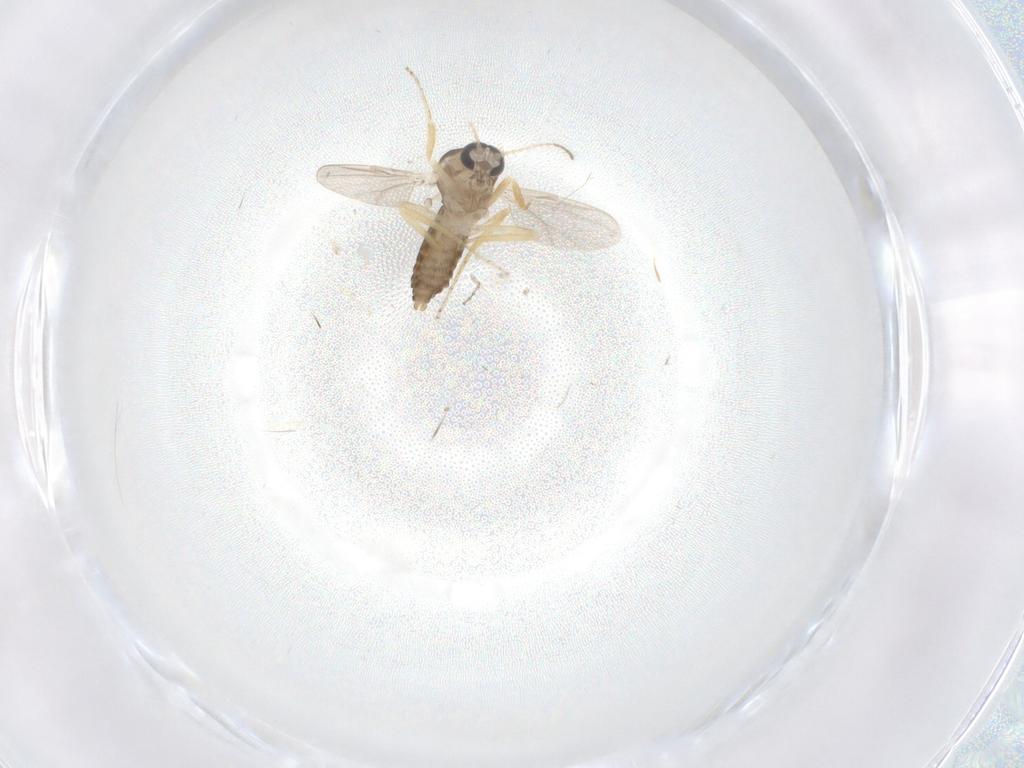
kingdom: Animalia
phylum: Arthropoda
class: Insecta
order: Diptera
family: Ceratopogonidae
